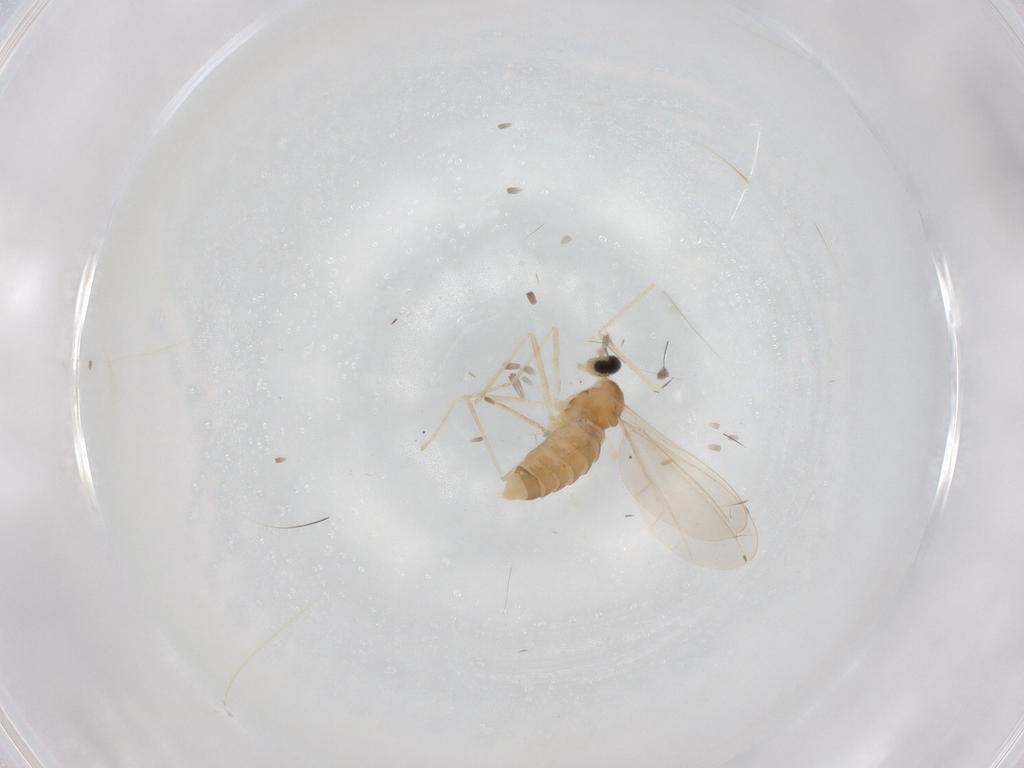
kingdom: Animalia
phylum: Arthropoda
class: Insecta
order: Diptera
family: Cecidomyiidae
